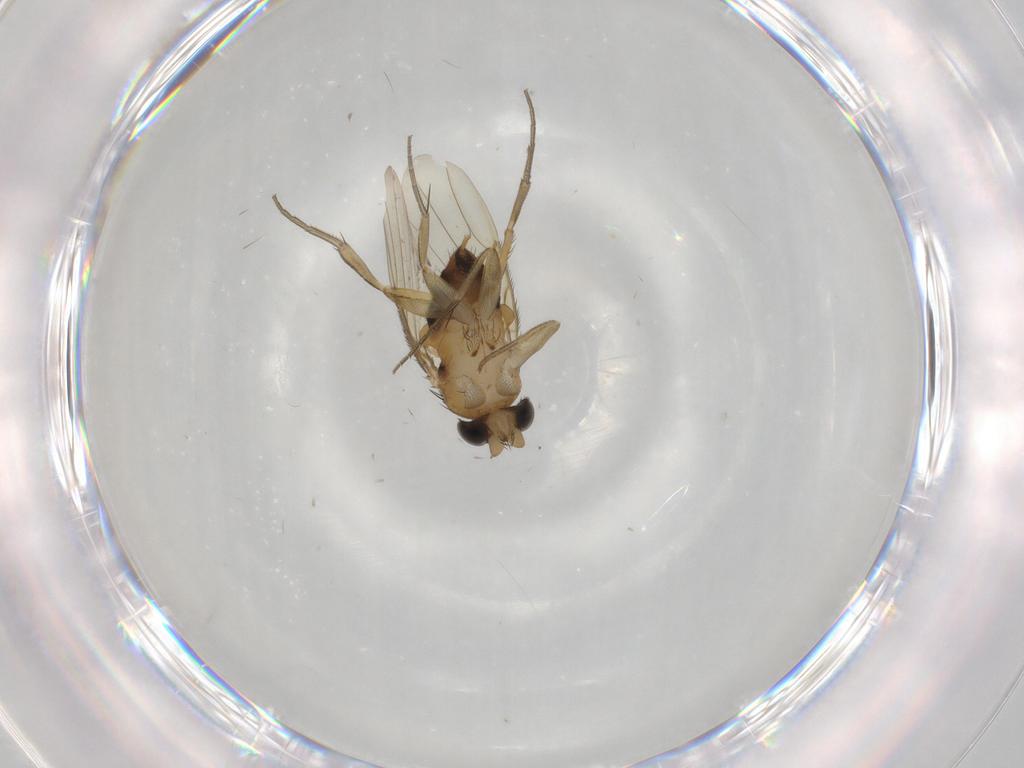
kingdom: Animalia
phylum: Arthropoda
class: Insecta
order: Diptera
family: Phoridae
